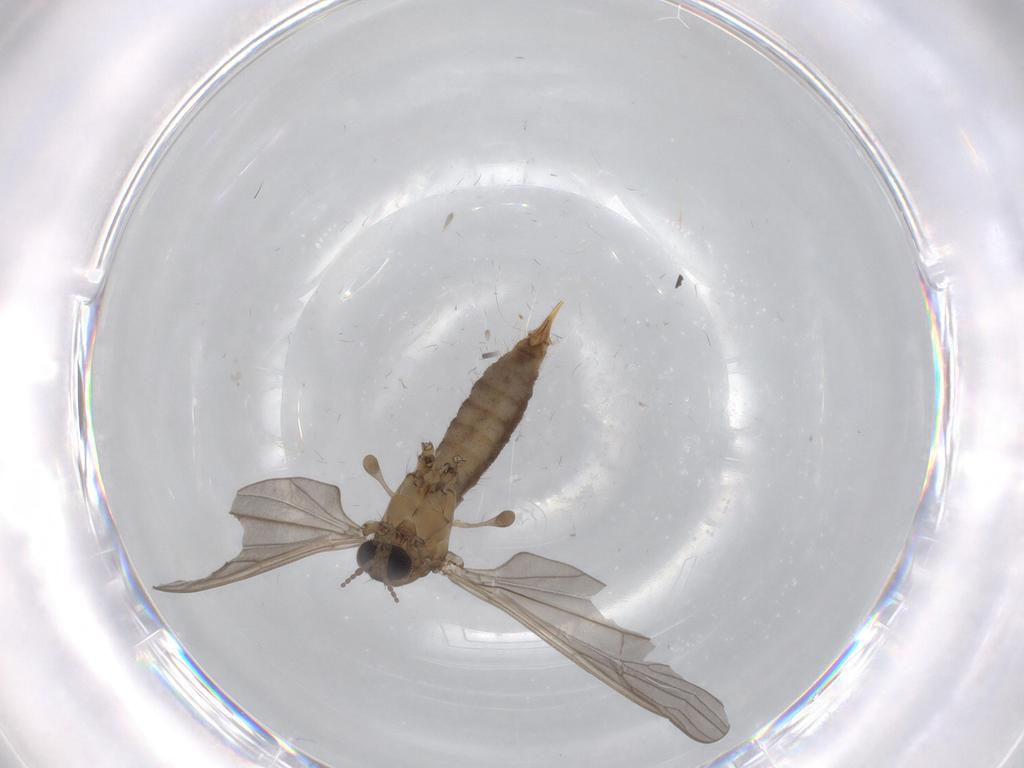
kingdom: Animalia
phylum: Arthropoda
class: Insecta
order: Diptera
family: Limoniidae
